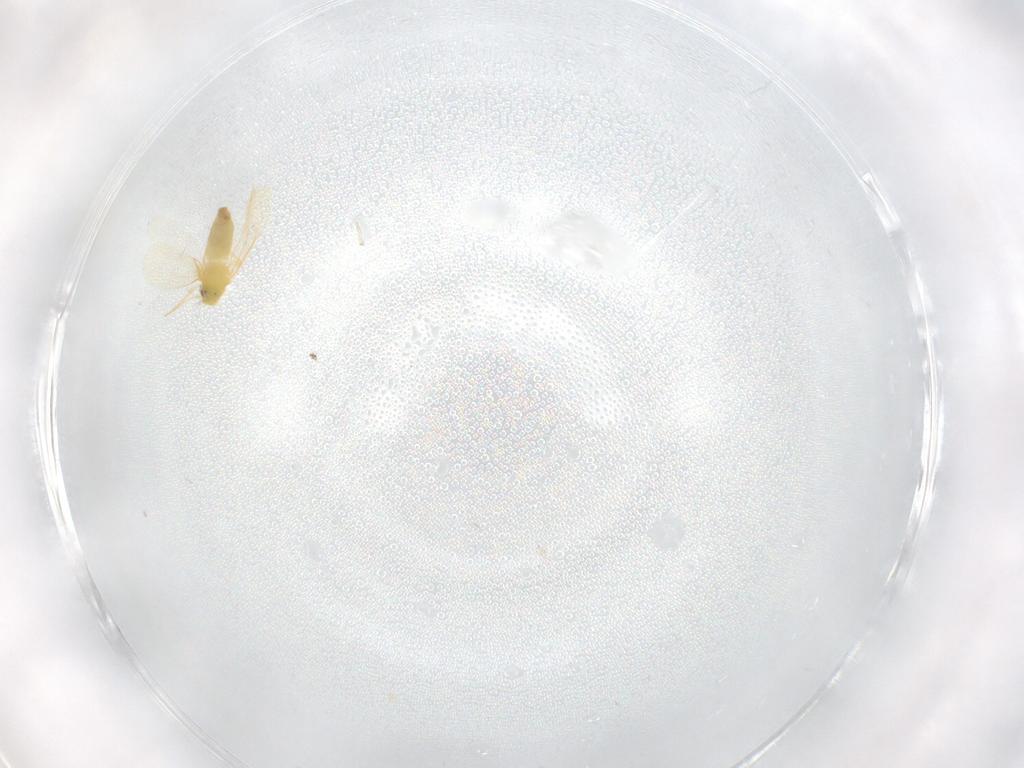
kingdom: Animalia
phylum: Arthropoda
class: Insecta
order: Hemiptera
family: Aleyrodidae
